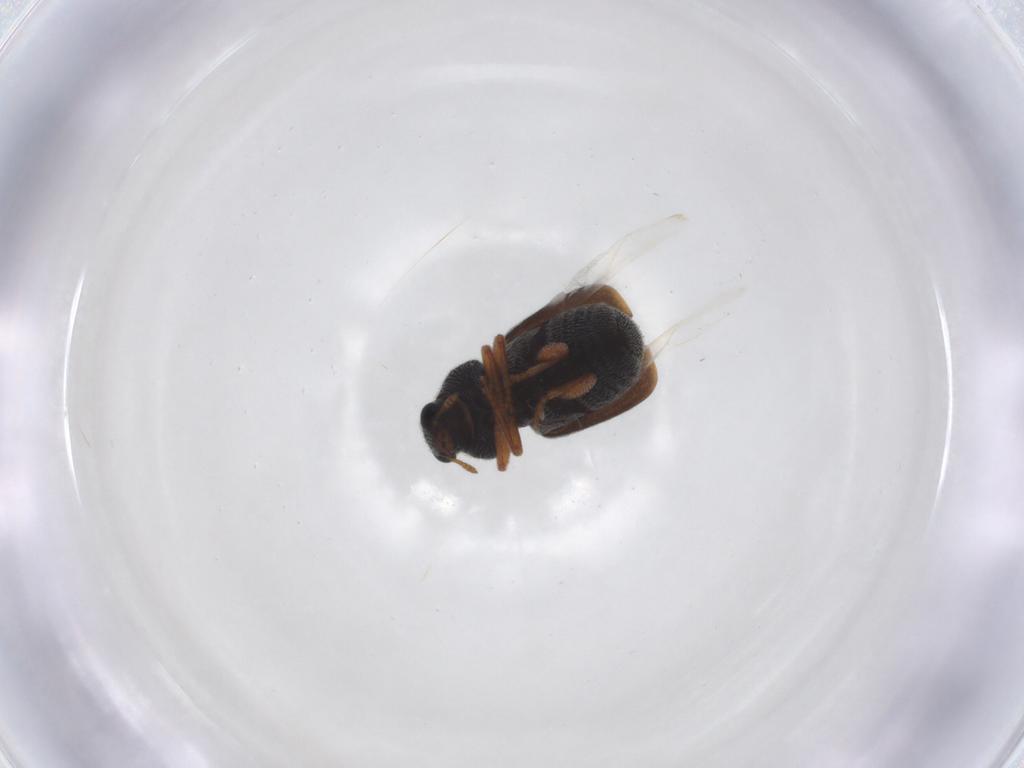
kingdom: Animalia
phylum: Arthropoda
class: Insecta
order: Coleoptera
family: Anthribidae
